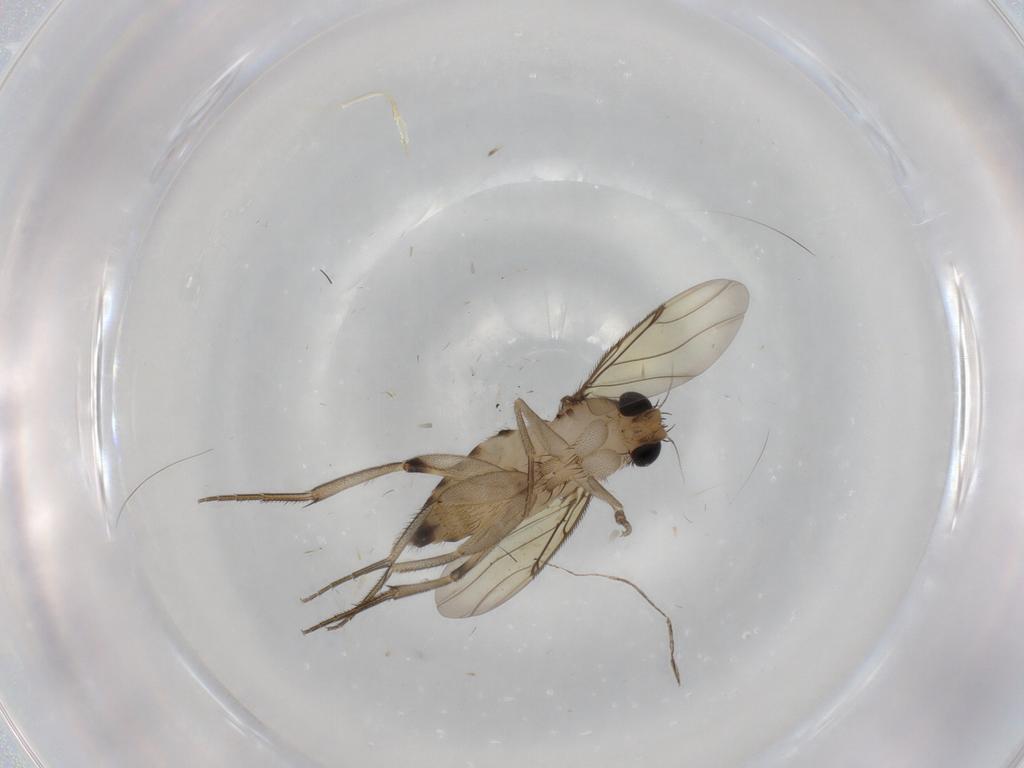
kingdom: Animalia
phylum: Arthropoda
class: Insecta
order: Diptera
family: Phoridae
